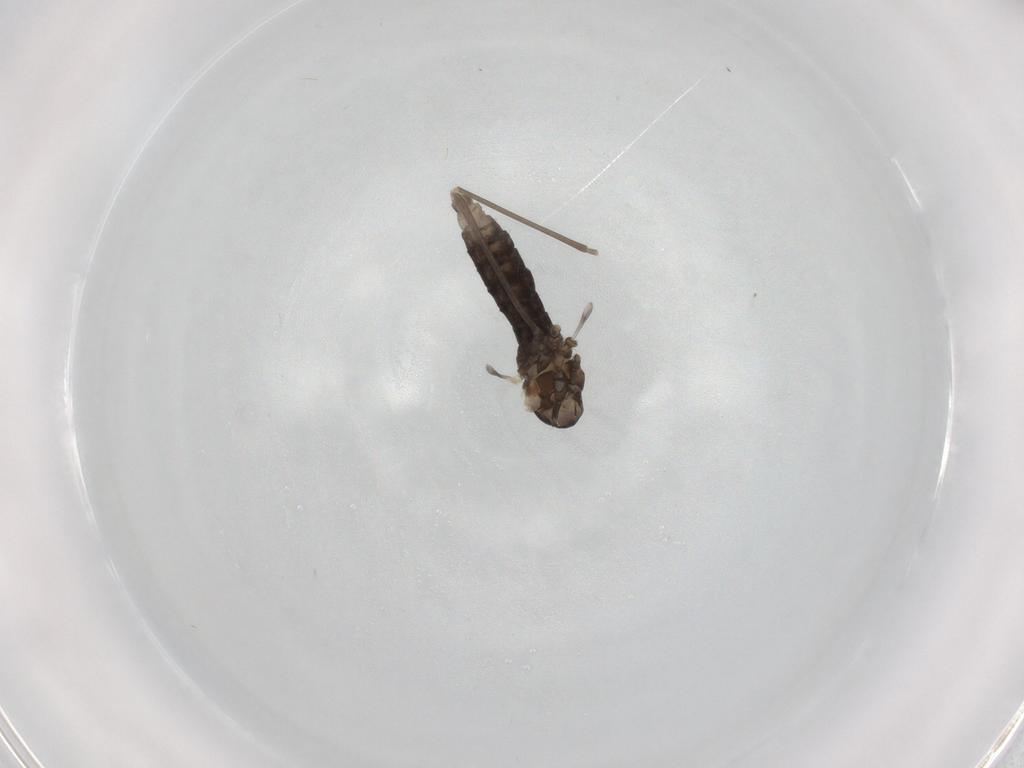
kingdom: Animalia
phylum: Arthropoda
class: Insecta
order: Diptera
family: Cecidomyiidae
